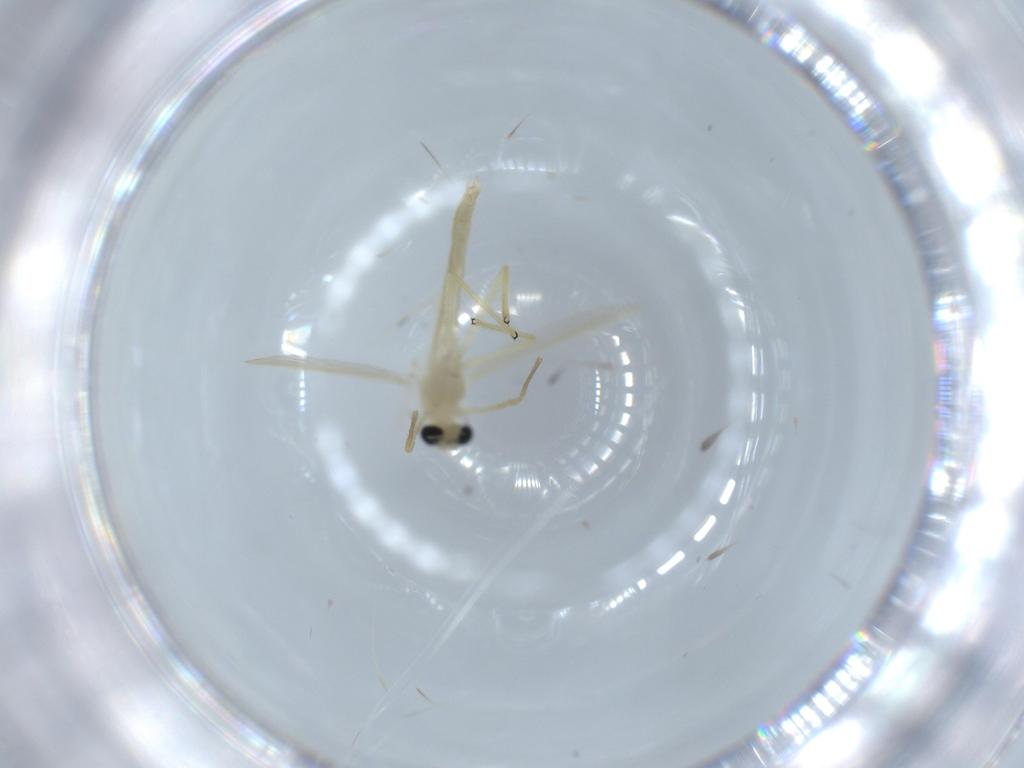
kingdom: Animalia
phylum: Arthropoda
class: Insecta
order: Diptera
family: Chironomidae
